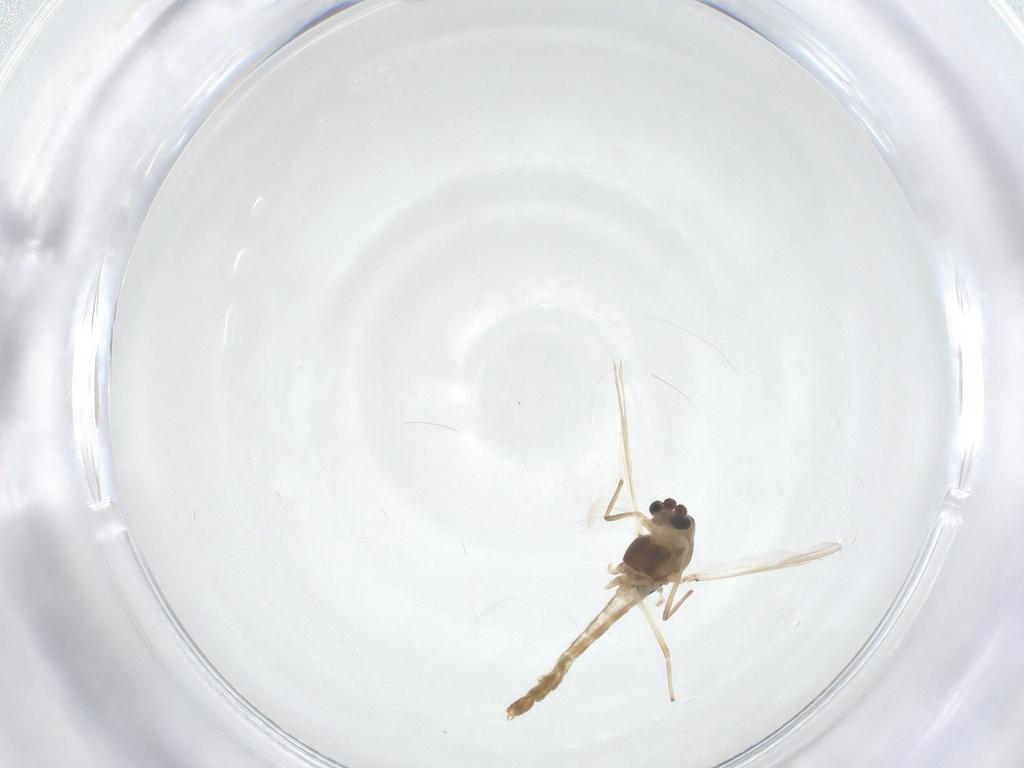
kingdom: Animalia
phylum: Arthropoda
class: Insecta
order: Diptera
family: Chironomidae
